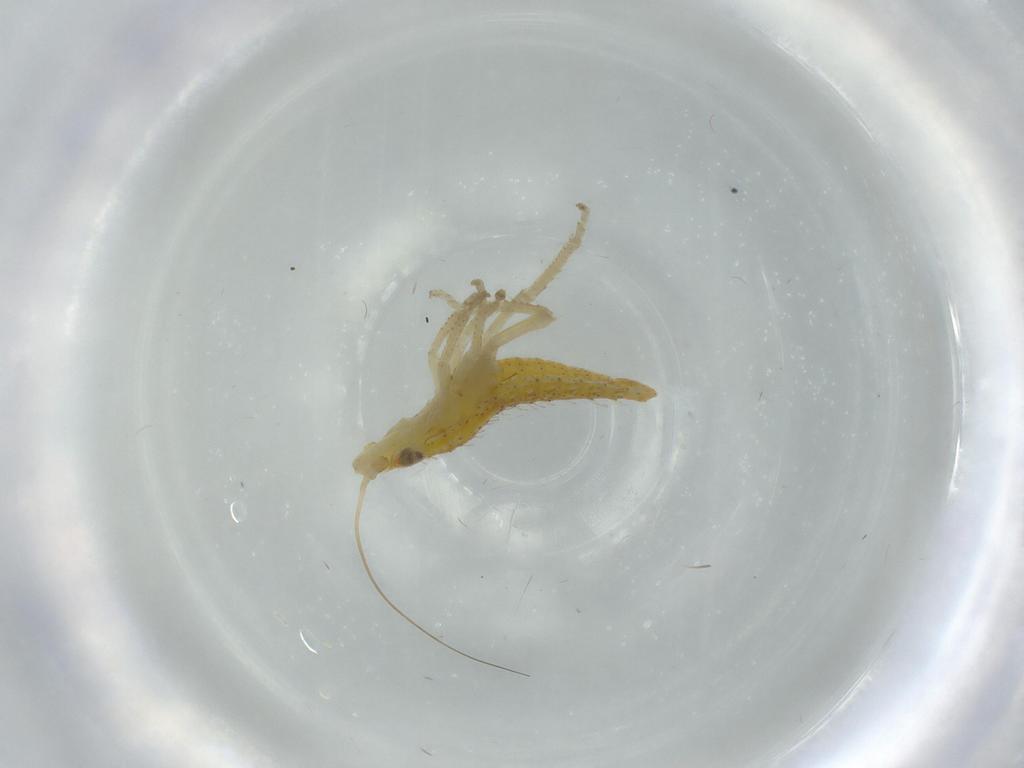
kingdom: Animalia
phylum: Arthropoda
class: Insecta
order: Hemiptera
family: Cicadellidae
